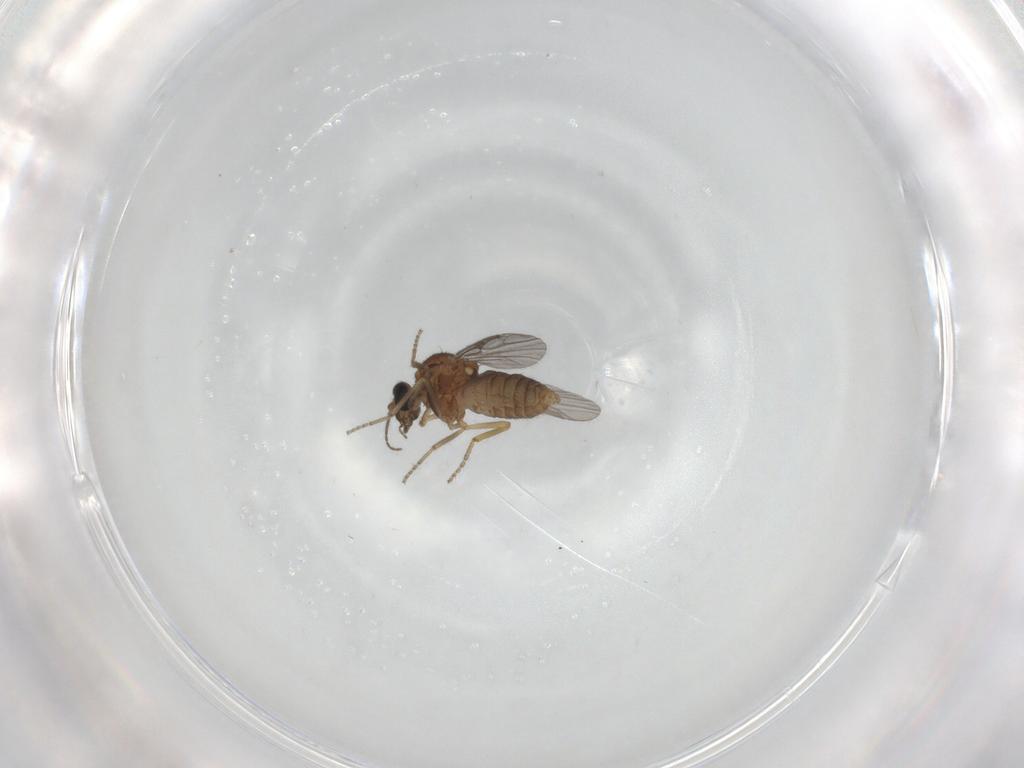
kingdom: Animalia
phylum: Arthropoda
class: Insecta
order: Diptera
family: Ceratopogonidae
